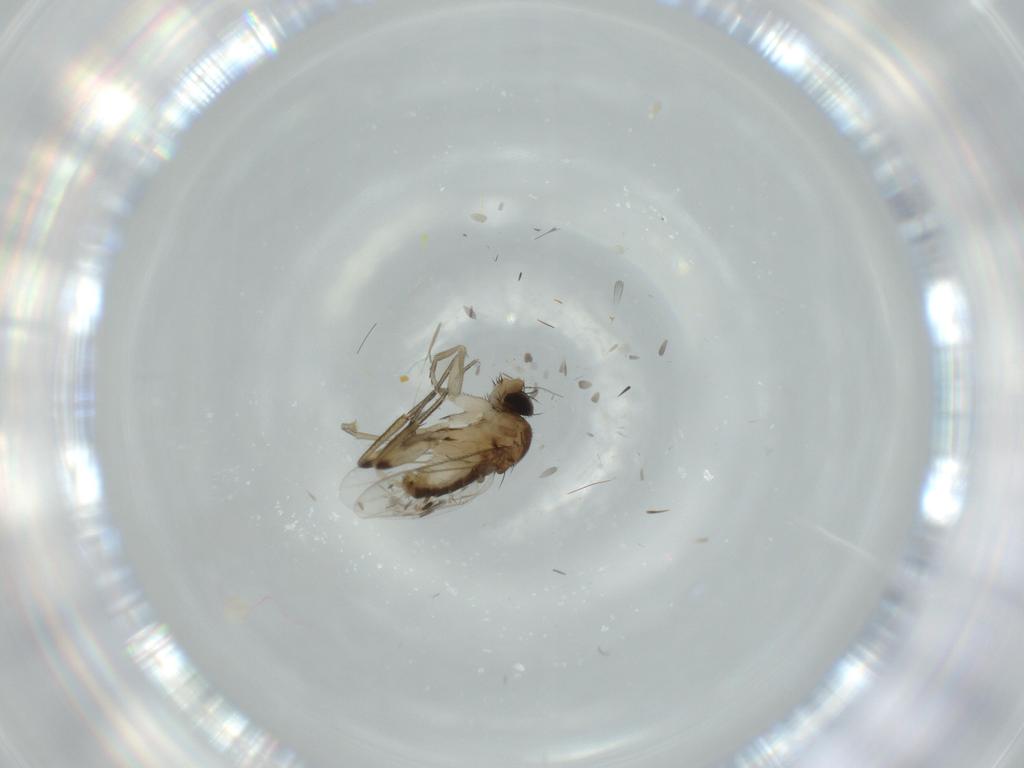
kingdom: Animalia
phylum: Arthropoda
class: Insecta
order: Diptera
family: Phoridae
